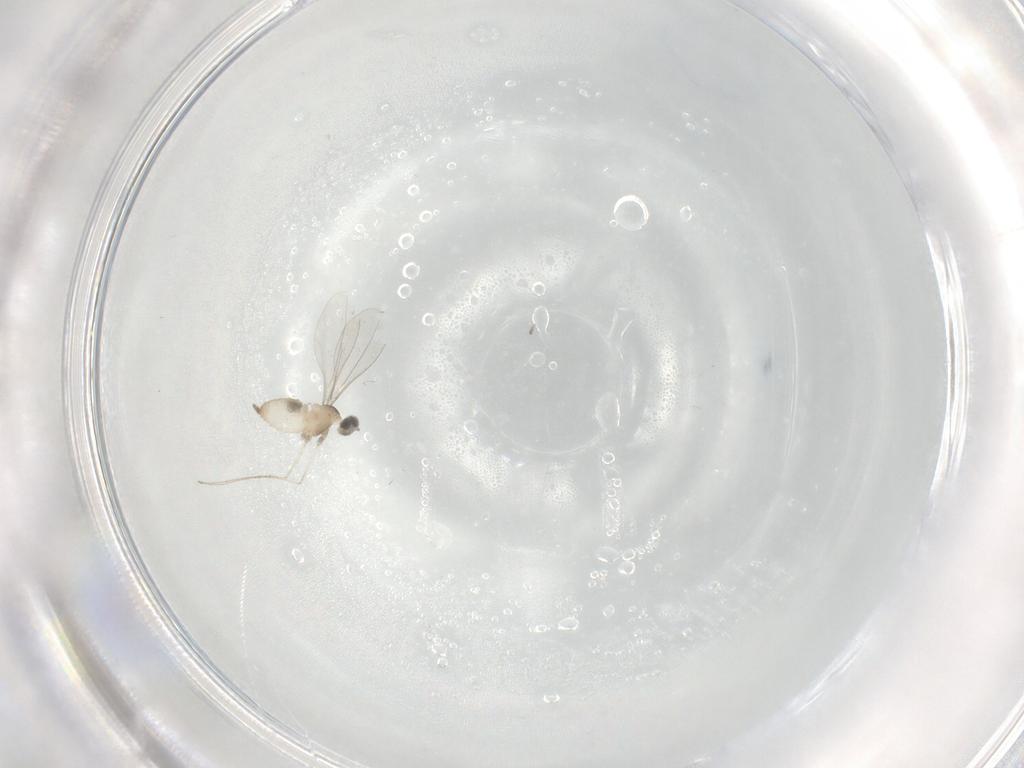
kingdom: Animalia
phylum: Arthropoda
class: Insecta
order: Diptera
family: Cecidomyiidae
